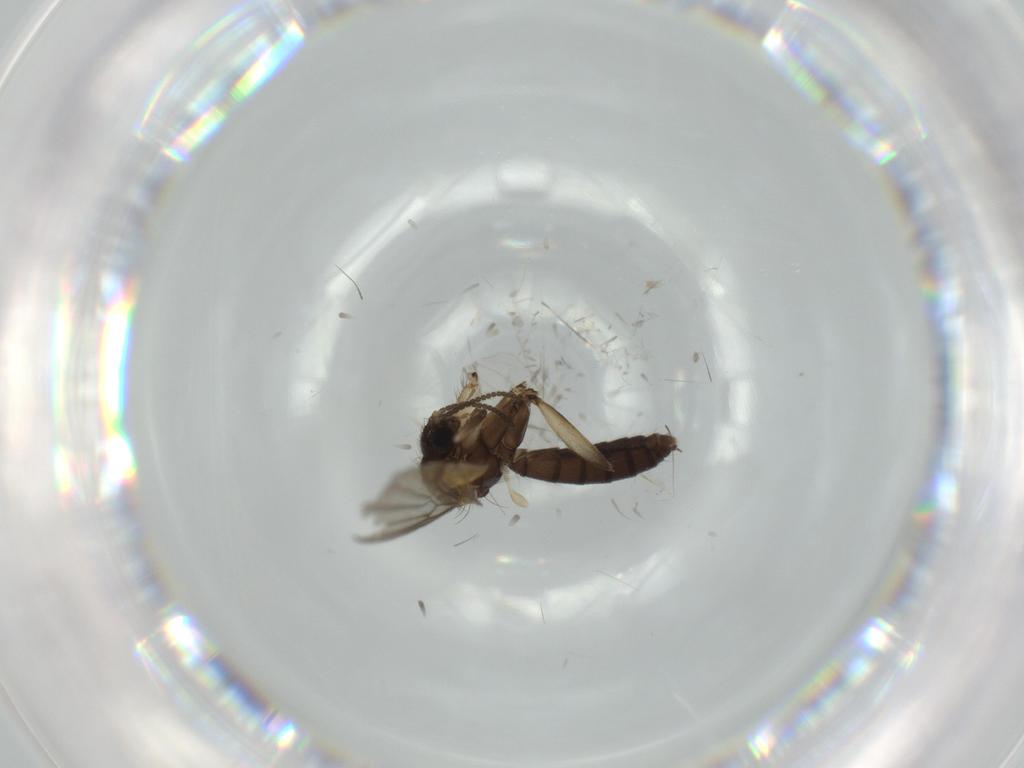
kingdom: Animalia
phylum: Arthropoda
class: Insecta
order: Diptera
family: Mycetophilidae
